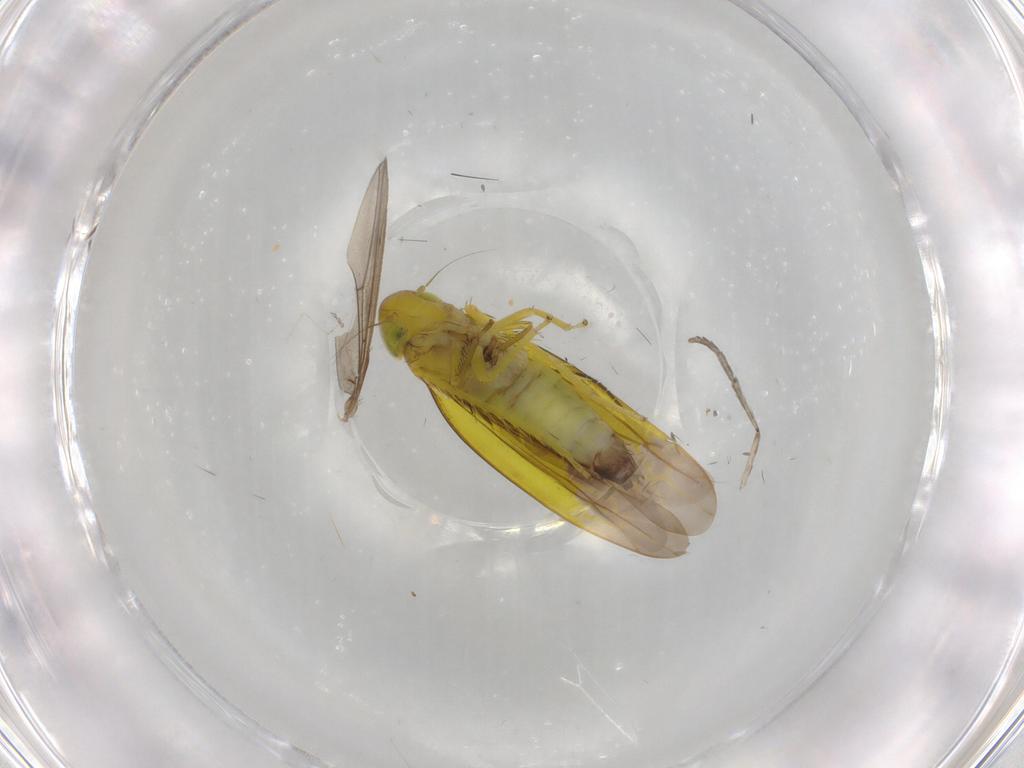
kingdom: Animalia
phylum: Arthropoda
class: Insecta
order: Hemiptera
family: Cicadellidae
